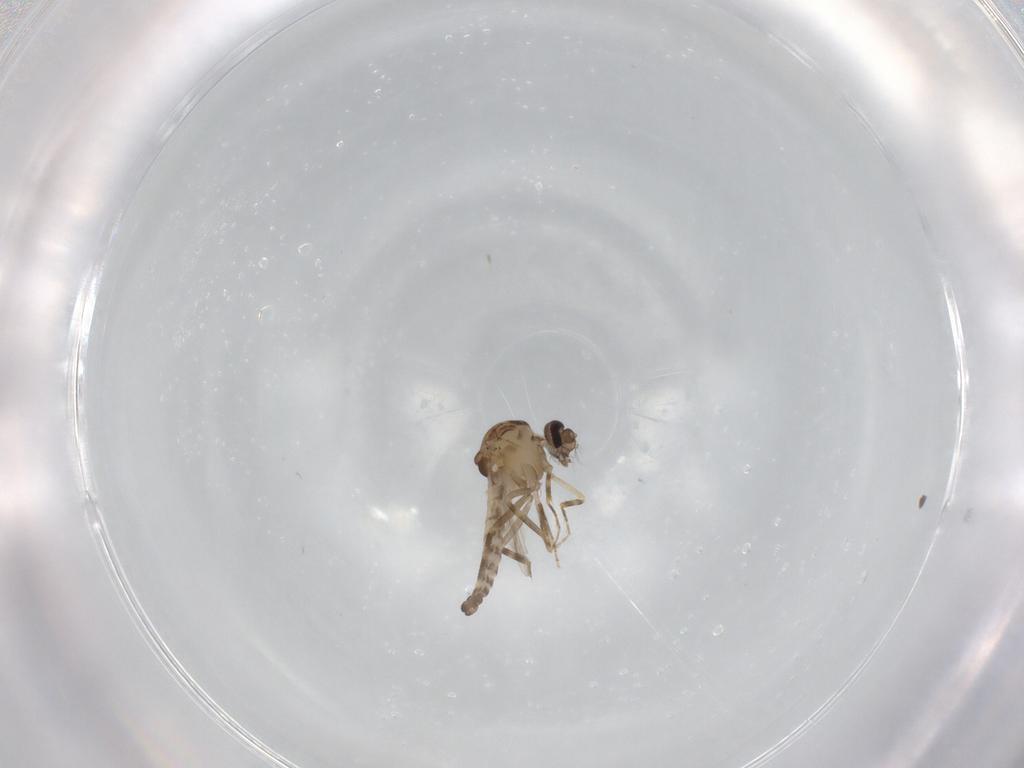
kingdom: Animalia
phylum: Arthropoda
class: Insecta
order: Diptera
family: Ceratopogonidae
